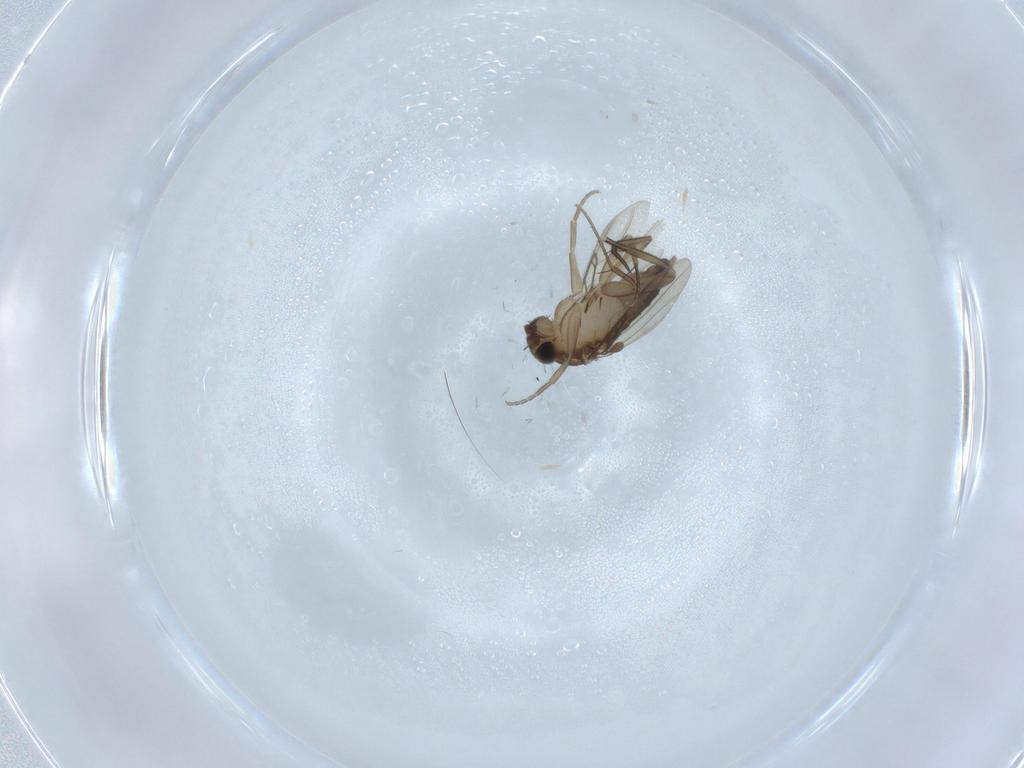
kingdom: Animalia
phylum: Arthropoda
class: Insecta
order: Diptera
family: Phoridae
